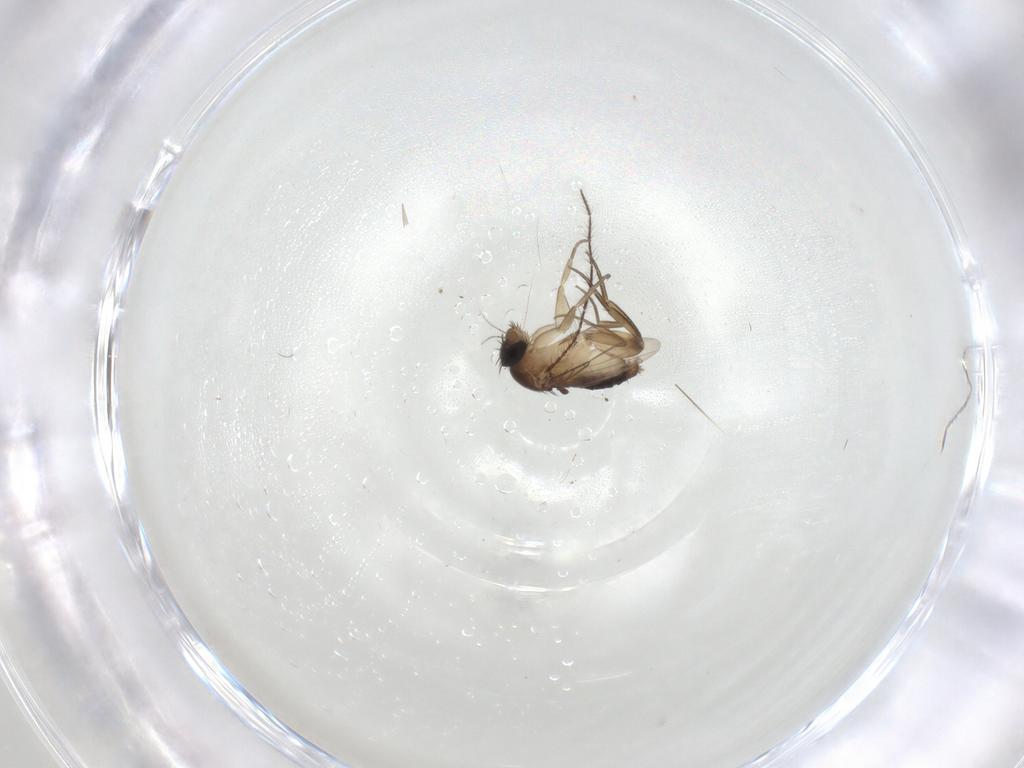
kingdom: Animalia
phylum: Arthropoda
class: Insecta
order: Diptera
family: Phoridae
